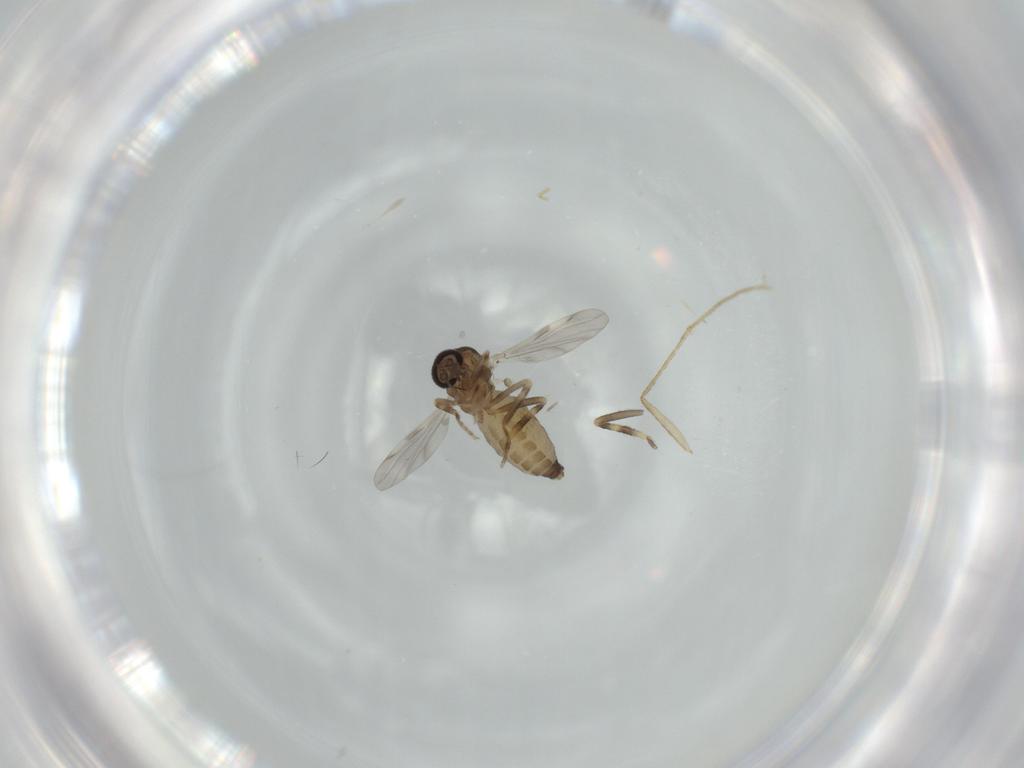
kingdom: Animalia
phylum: Arthropoda
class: Insecta
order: Diptera
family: Ceratopogonidae
